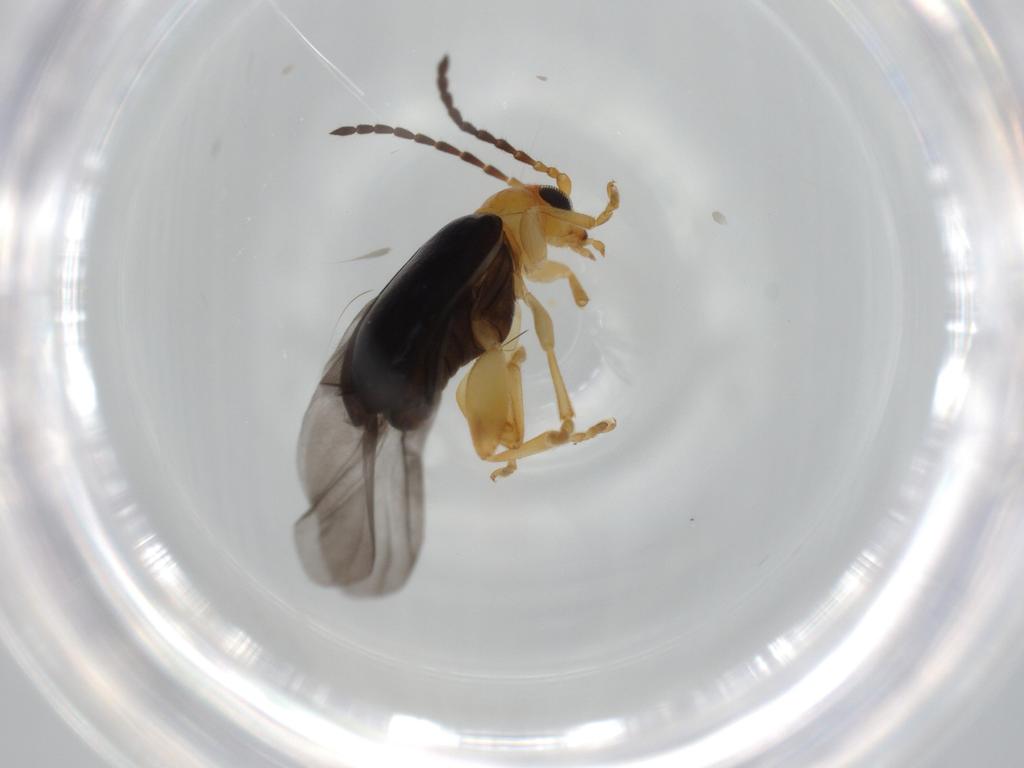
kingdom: Animalia
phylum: Arthropoda
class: Insecta
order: Coleoptera
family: Chrysomelidae
